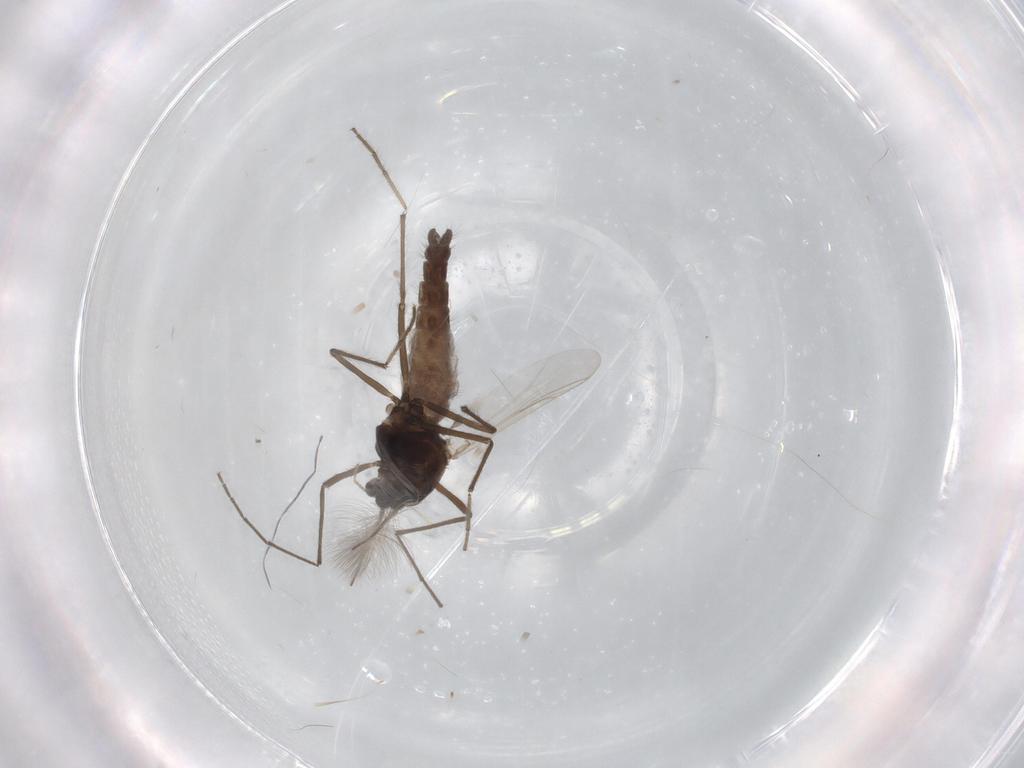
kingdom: Animalia
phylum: Arthropoda
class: Insecta
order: Diptera
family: Chironomidae
